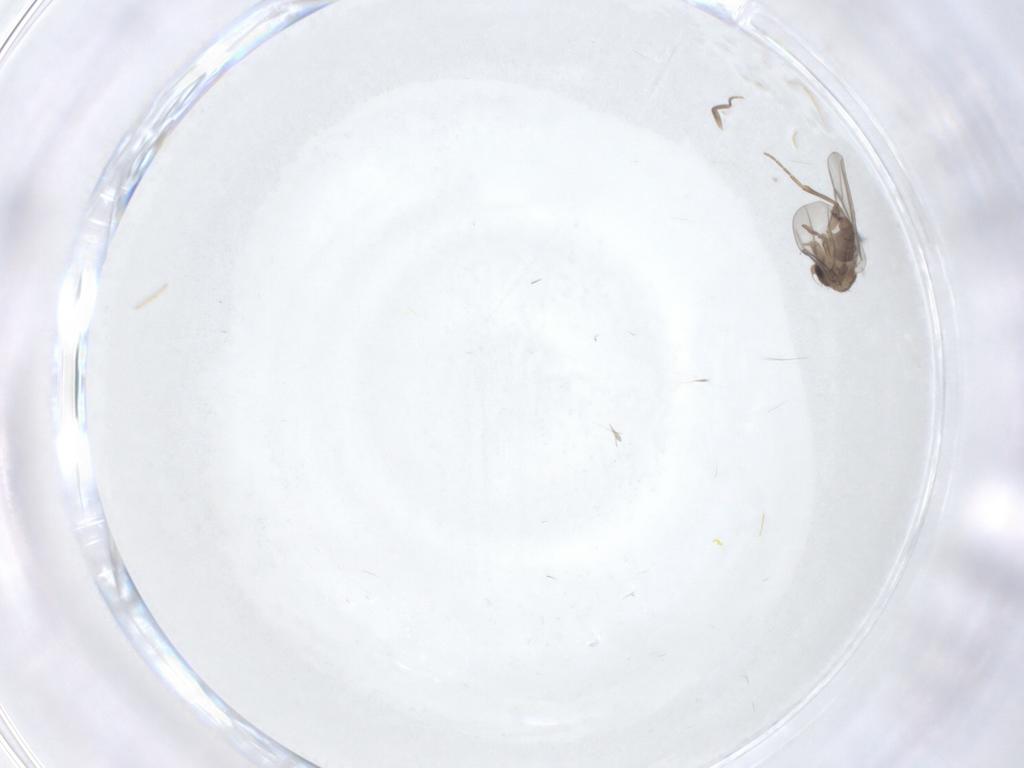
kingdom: Animalia
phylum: Arthropoda
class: Insecta
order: Diptera
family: Ceratopogonidae
